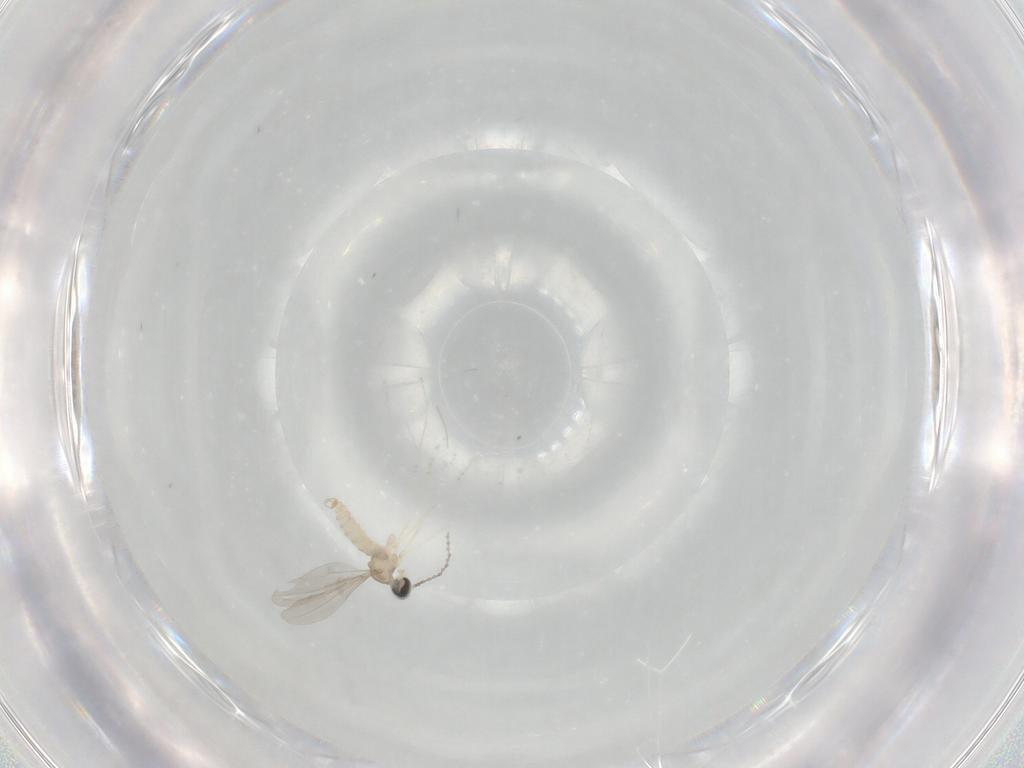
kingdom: Animalia
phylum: Arthropoda
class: Insecta
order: Diptera
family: Cecidomyiidae
